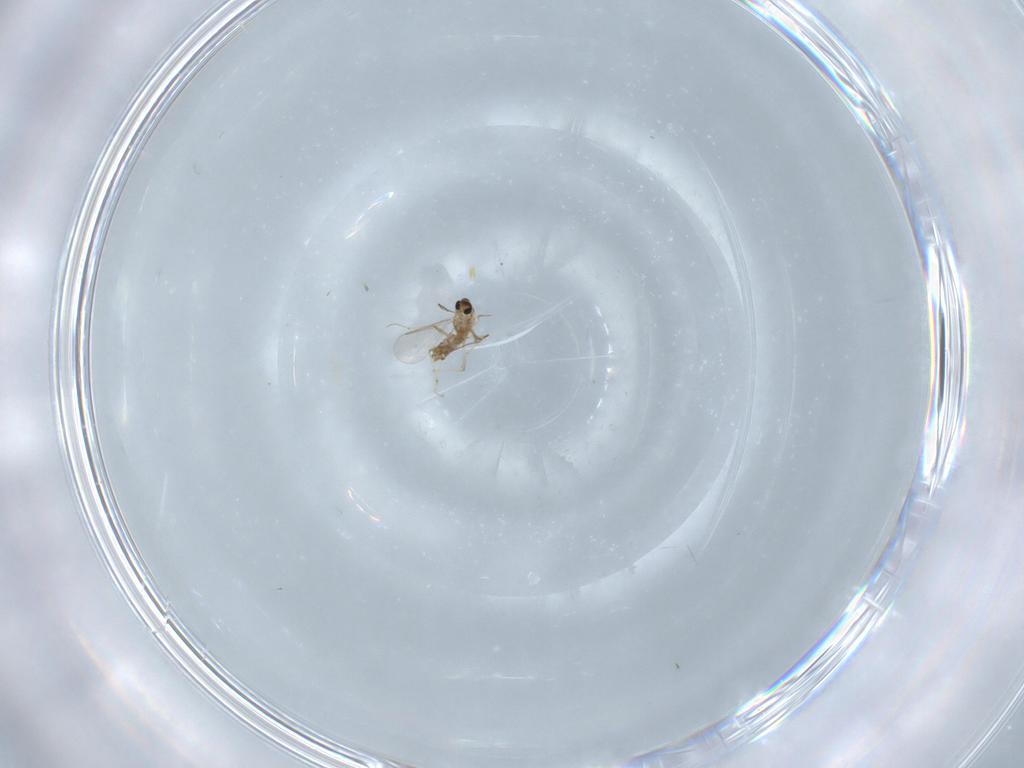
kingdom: Animalia
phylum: Arthropoda
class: Insecta
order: Diptera
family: Chironomidae
